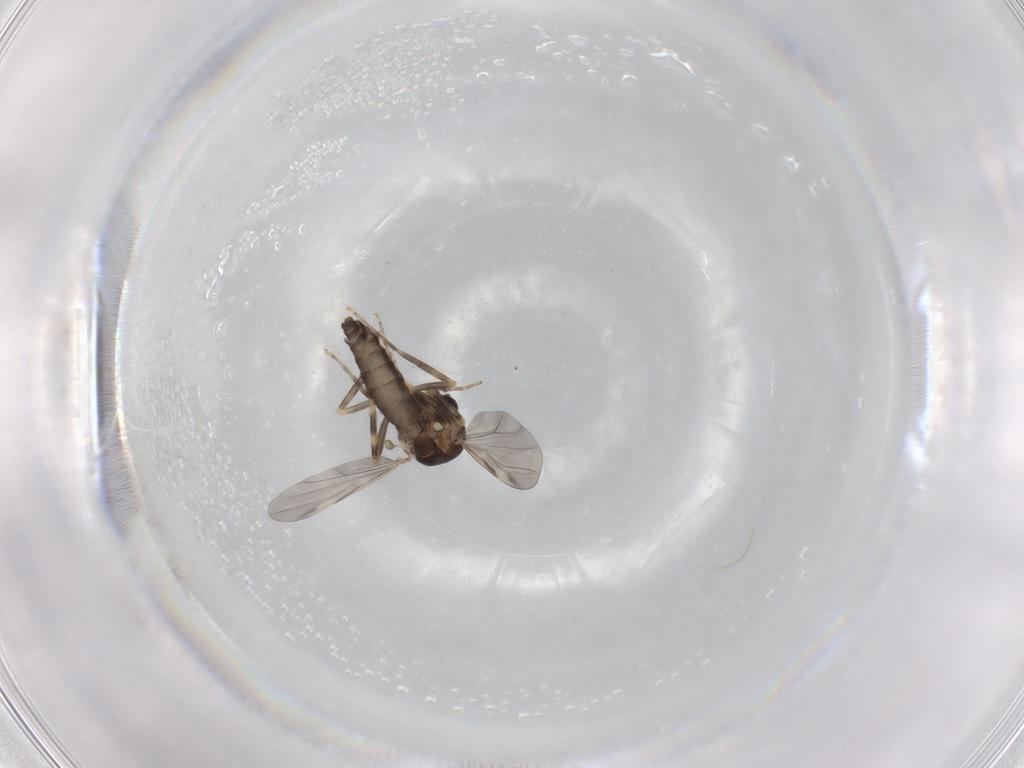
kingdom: Animalia
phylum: Arthropoda
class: Insecta
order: Diptera
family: Ceratopogonidae
